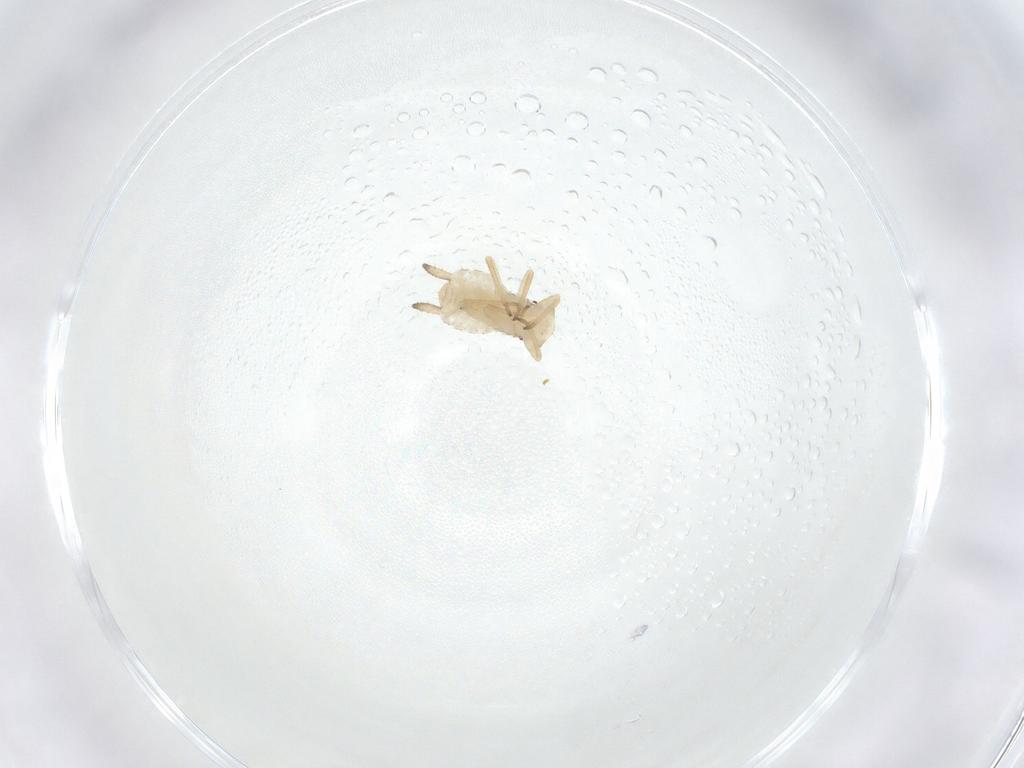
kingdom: Animalia
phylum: Arthropoda
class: Insecta
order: Hemiptera
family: Aphididae
